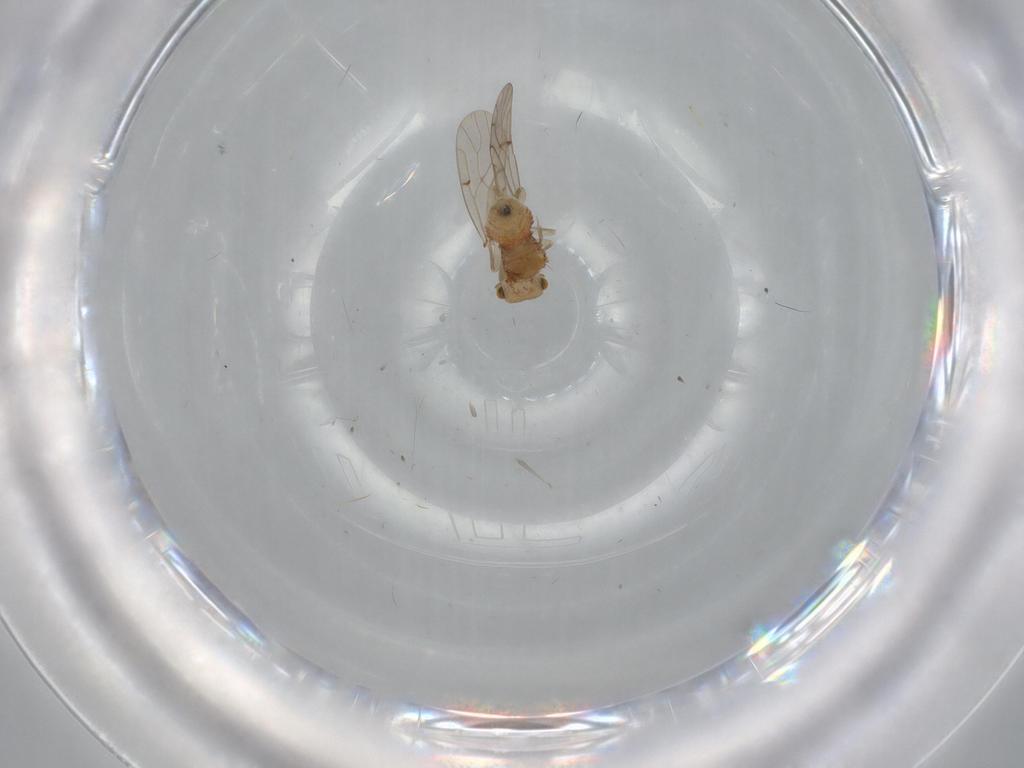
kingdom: Animalia
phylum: Arthropoda
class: Insecta
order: Psocodea
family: Ectopsocidae
